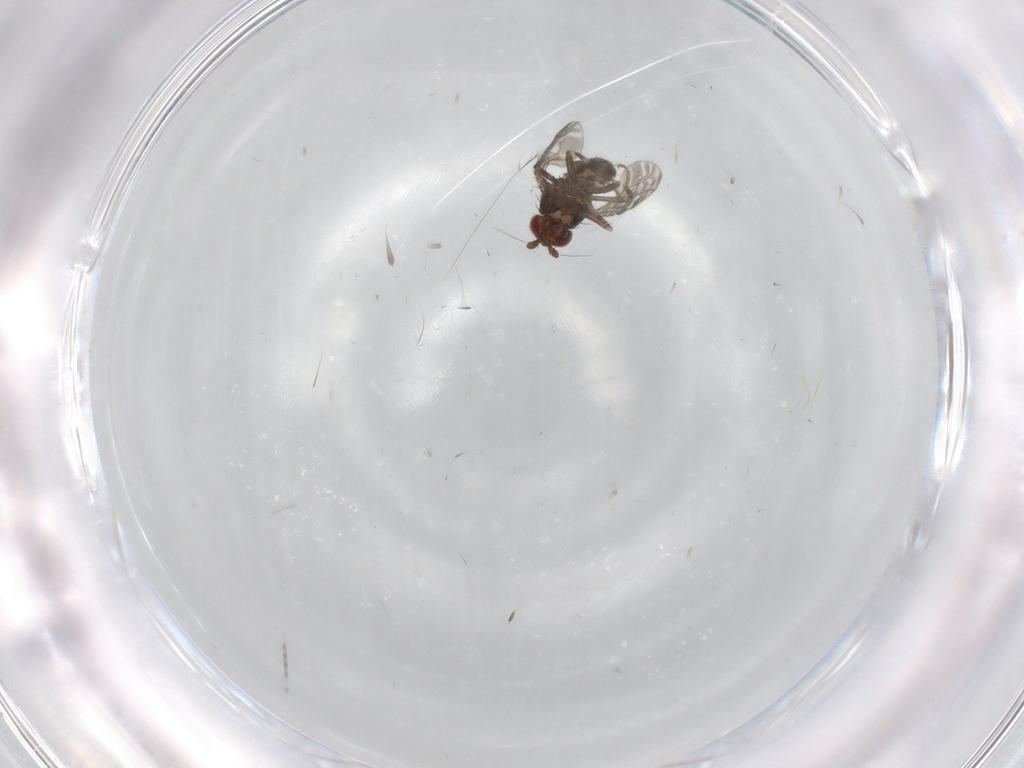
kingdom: Animalia
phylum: Arthropoda
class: Insecta
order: Diptera
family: Sphaeroceridae
